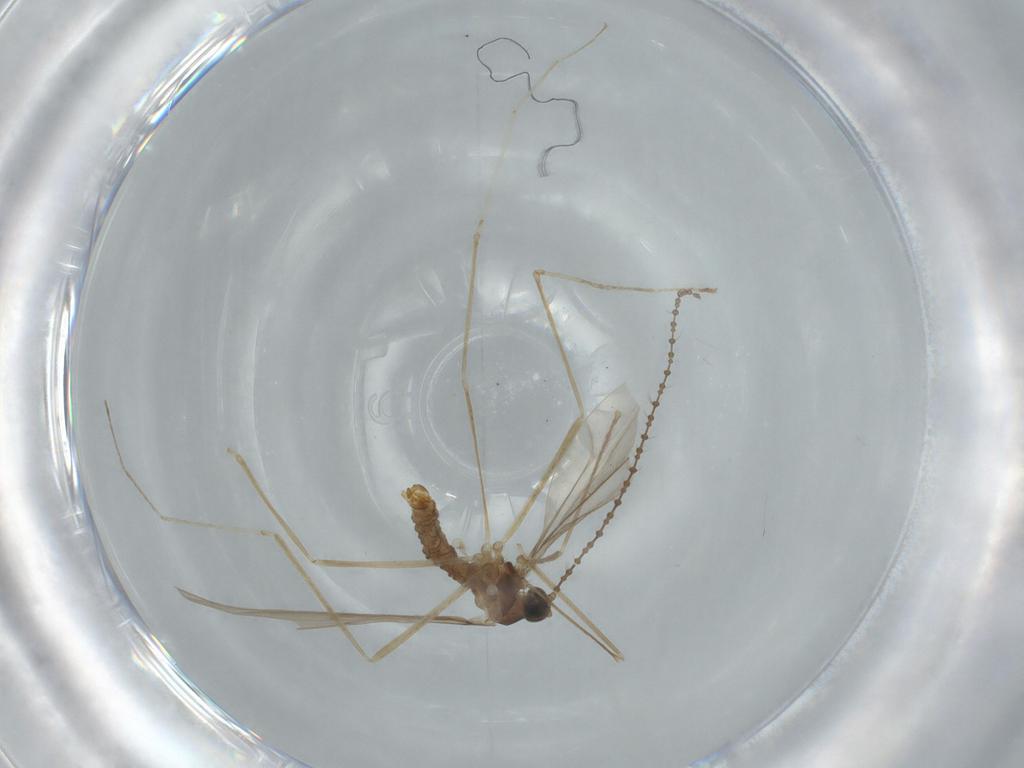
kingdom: Animalia
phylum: Arthropoda
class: Insecta
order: Diptera
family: Cecidomyiidae
